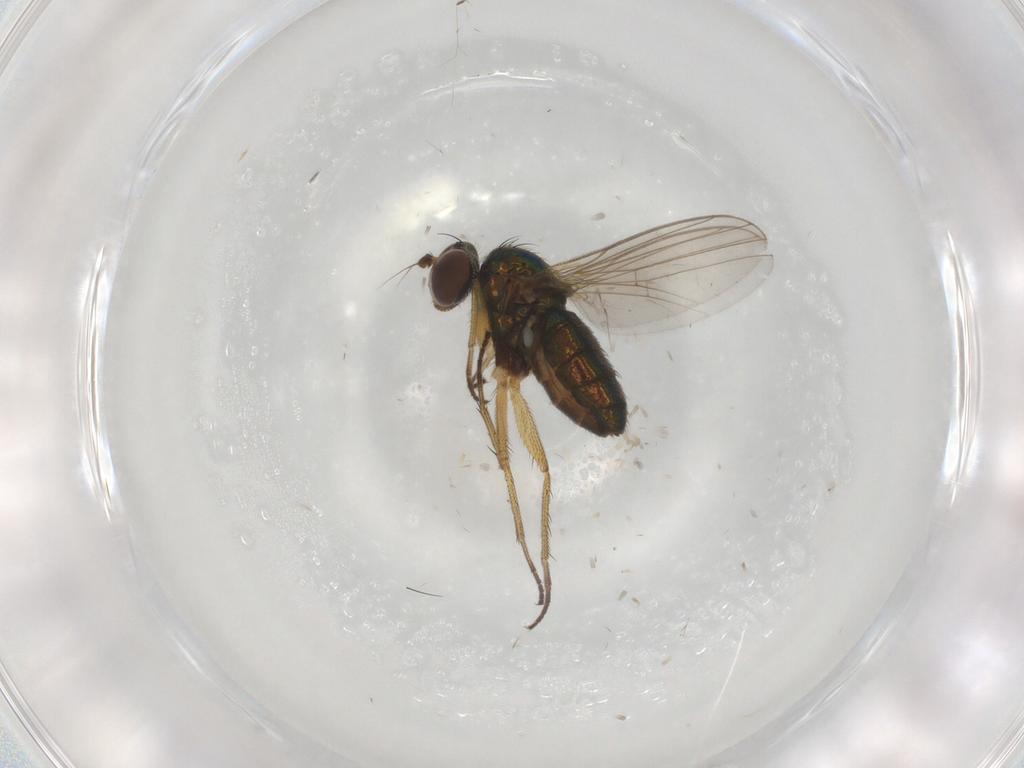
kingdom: Animalia
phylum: Arthropoda
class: Insecta
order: Diptera
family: Dolichopodidae
